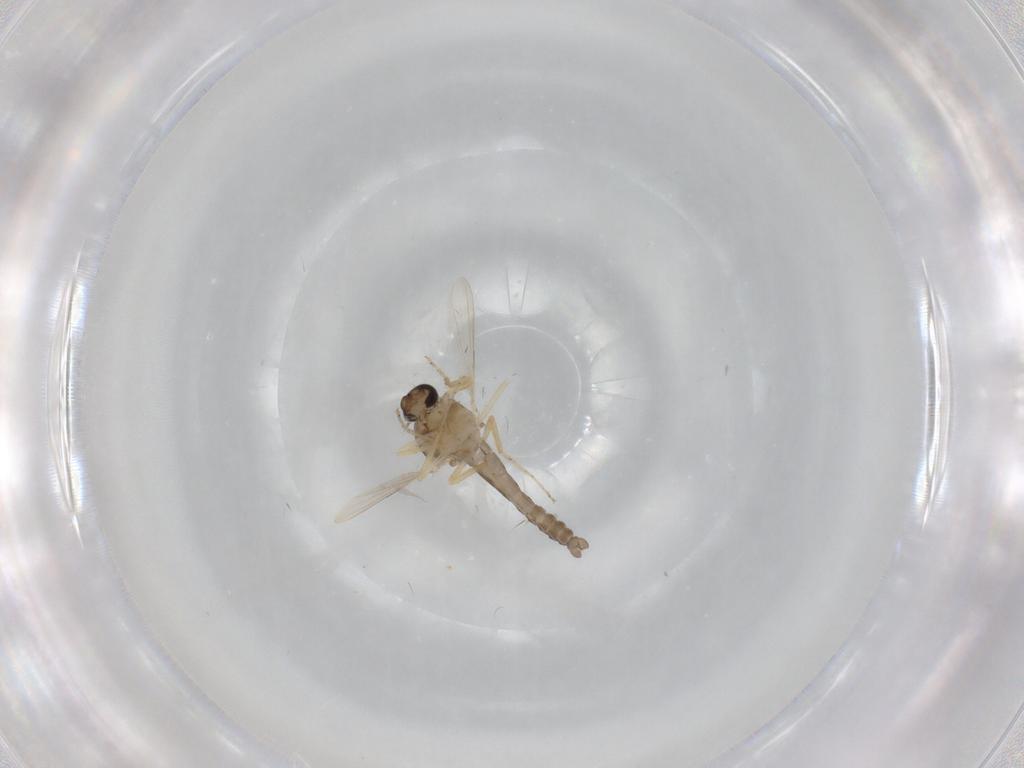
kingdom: Animalia
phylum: Arthropoda
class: Insecta
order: Diptera
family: Ceratopogonidae
